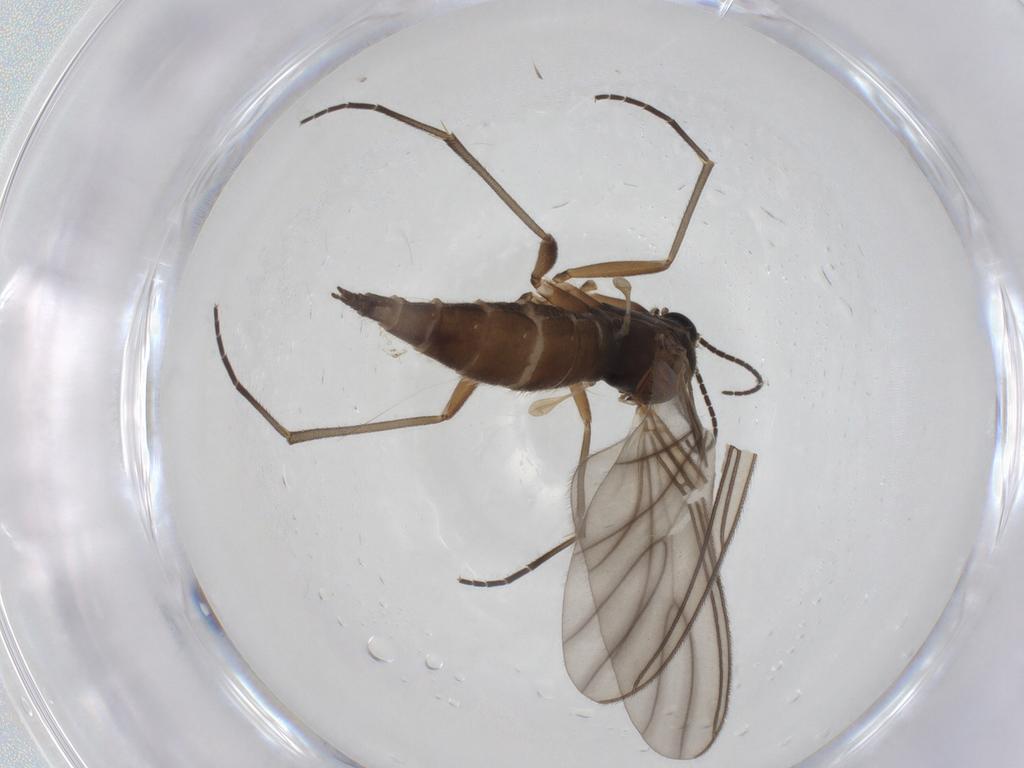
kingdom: Animalia
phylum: Arthropoda
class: Insecta
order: Diptera
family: Sciaridae
